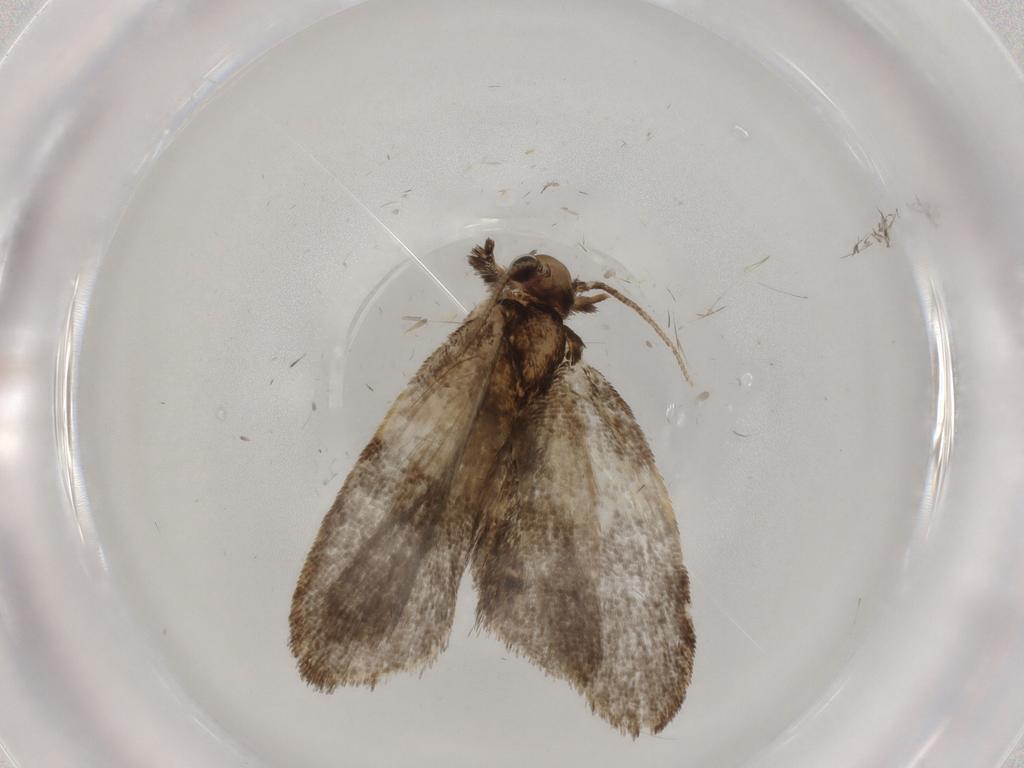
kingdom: Animalia
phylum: Arthropoda
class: Insecta
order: Lepidoptera
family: Psychidae
